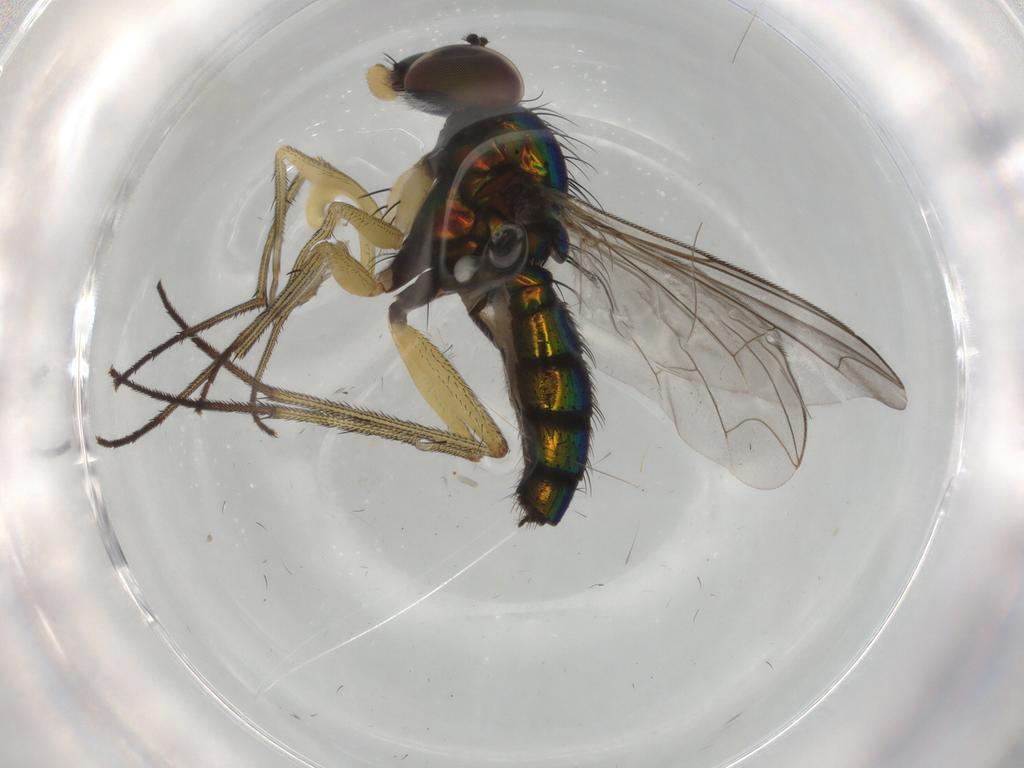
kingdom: Animalia
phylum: Arthropoda
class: Insecta
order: Diptera
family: Dolichopodidae
